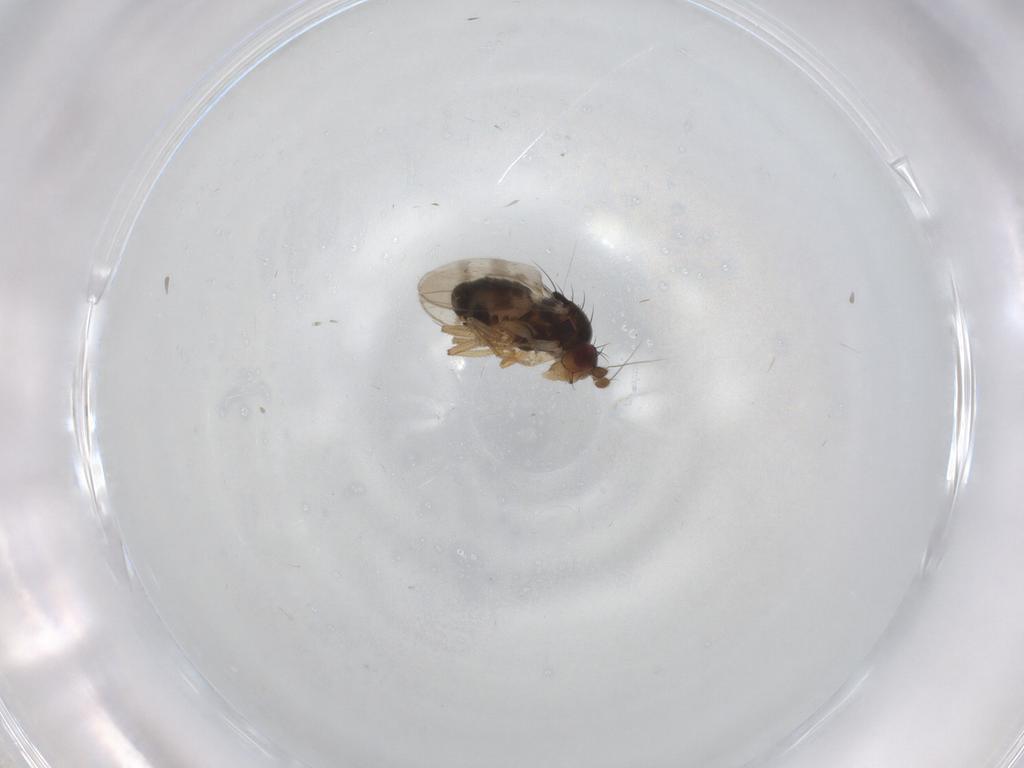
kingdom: Animalia
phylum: Arthropoda
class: Insecta
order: Diptera
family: Sphaeroceridae
